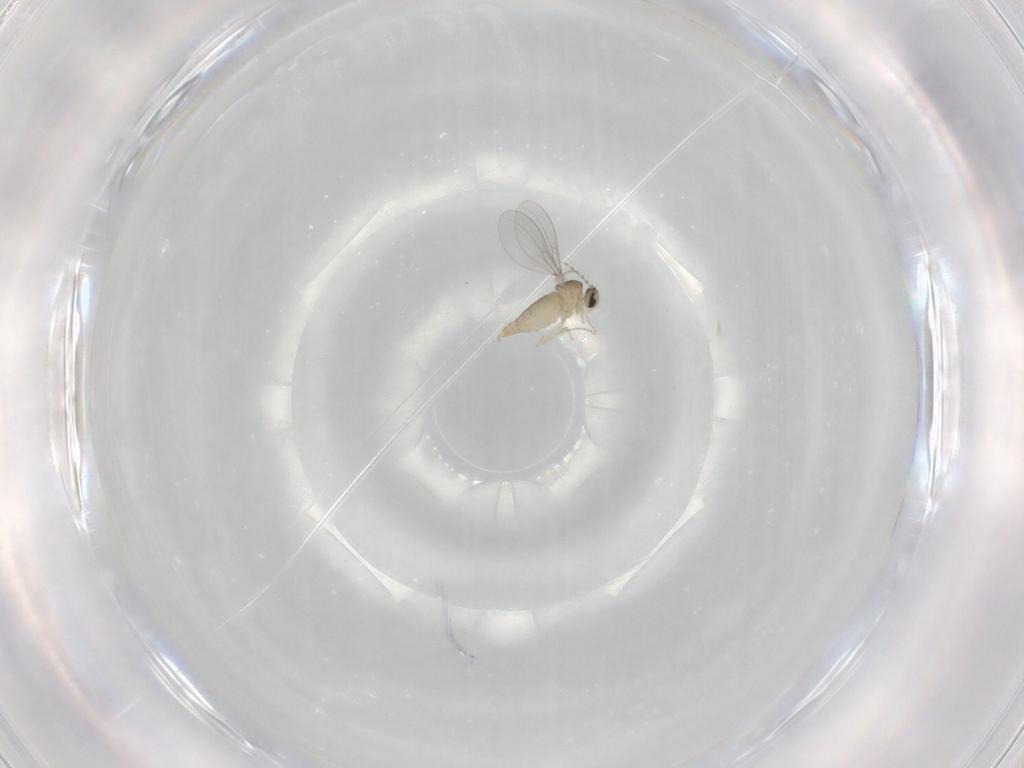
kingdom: Animalia
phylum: Arthropoda
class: Insecta
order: Diptera
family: Cecidomyiidae
